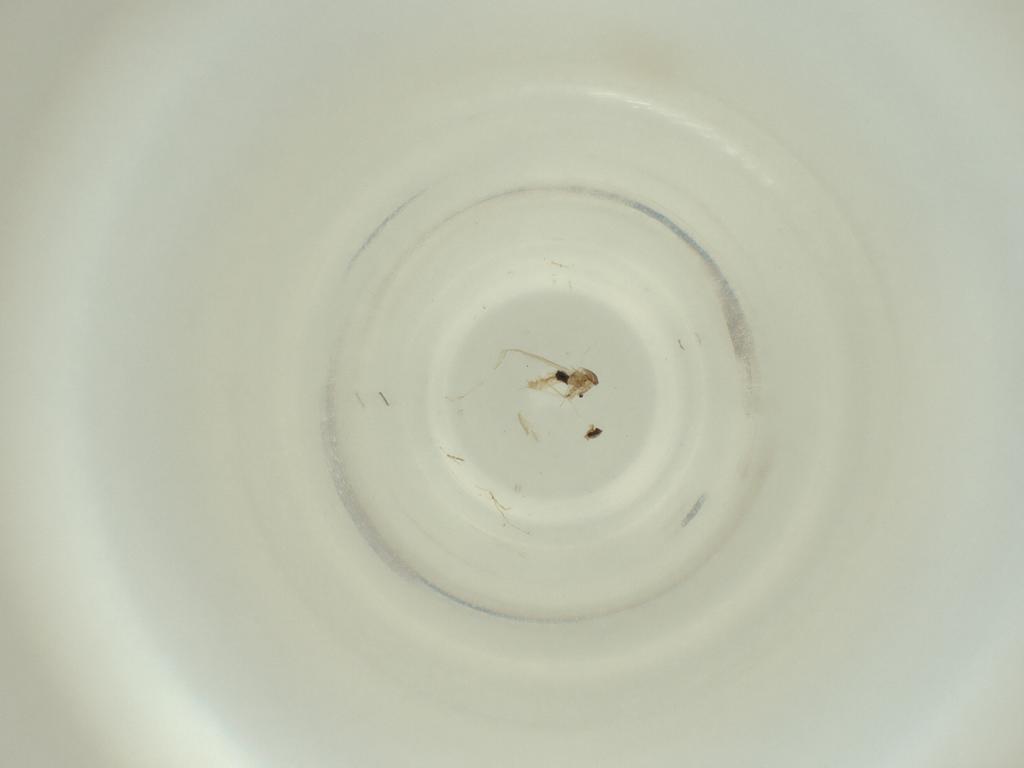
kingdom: Animalia
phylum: Arthropoda
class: Insecta
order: Diptera
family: Cecidomyiidae
